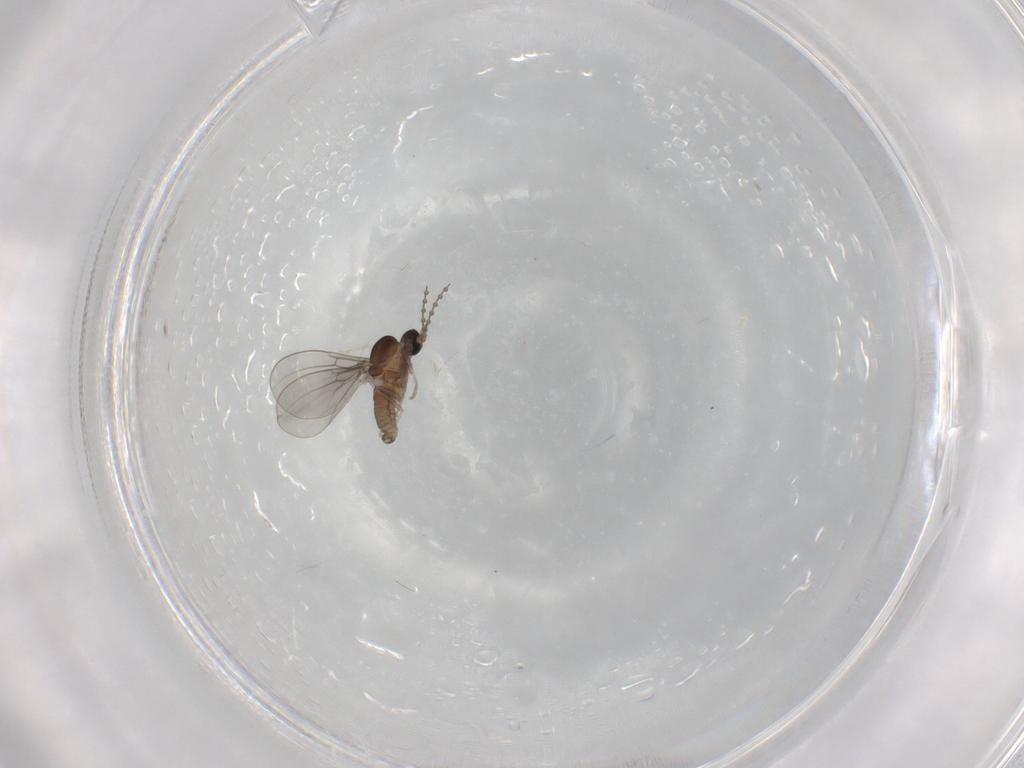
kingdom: Animalia
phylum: Arthropoda
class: Insecta
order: Diptera
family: Cecidomyiidae
